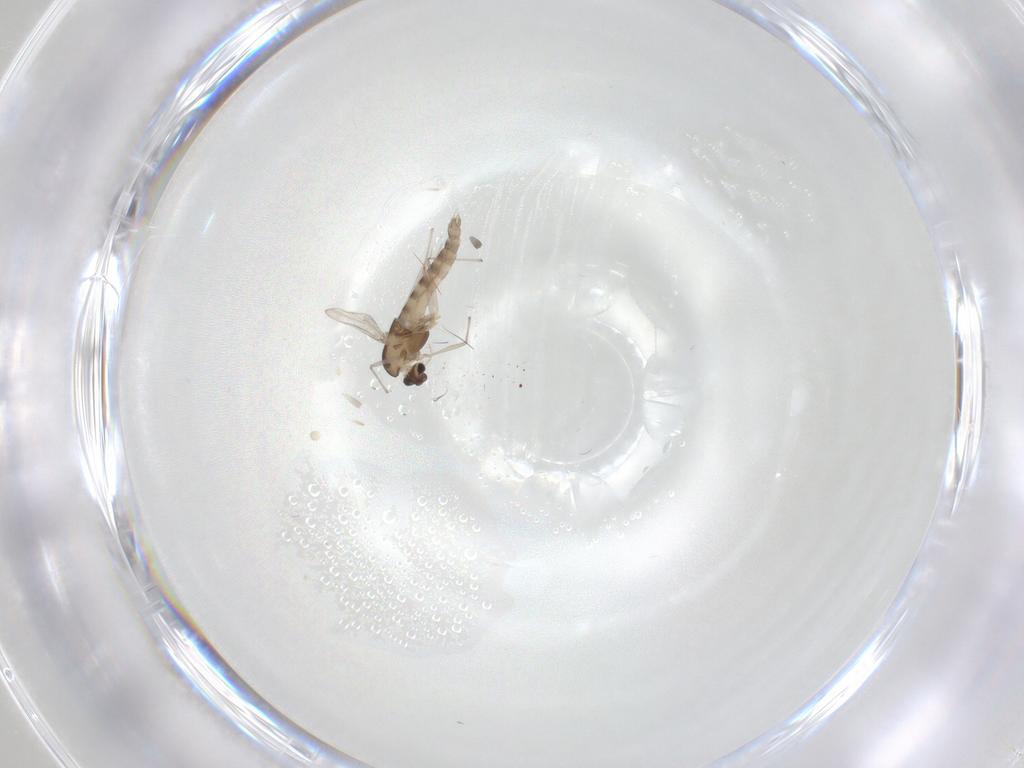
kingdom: Animalia
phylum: Arthropoda
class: Insecta
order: Diptera
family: Chironomidae
